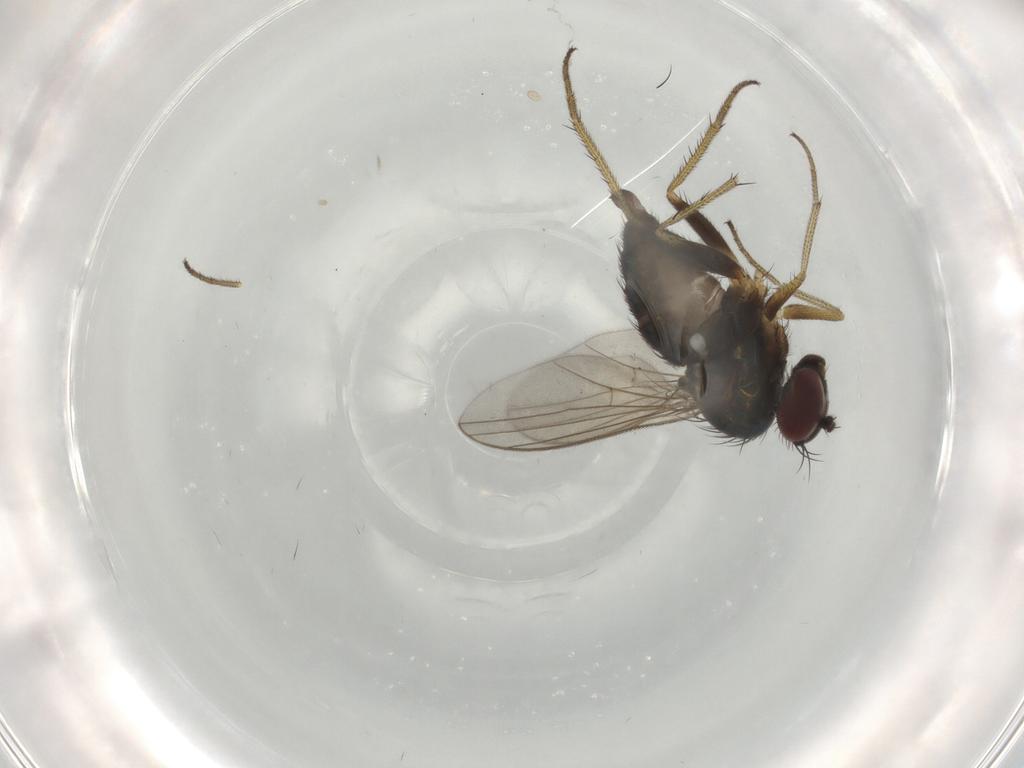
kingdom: Animalia
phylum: Arthropoda
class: Insecta
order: Diptera
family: Dolichopodidae
